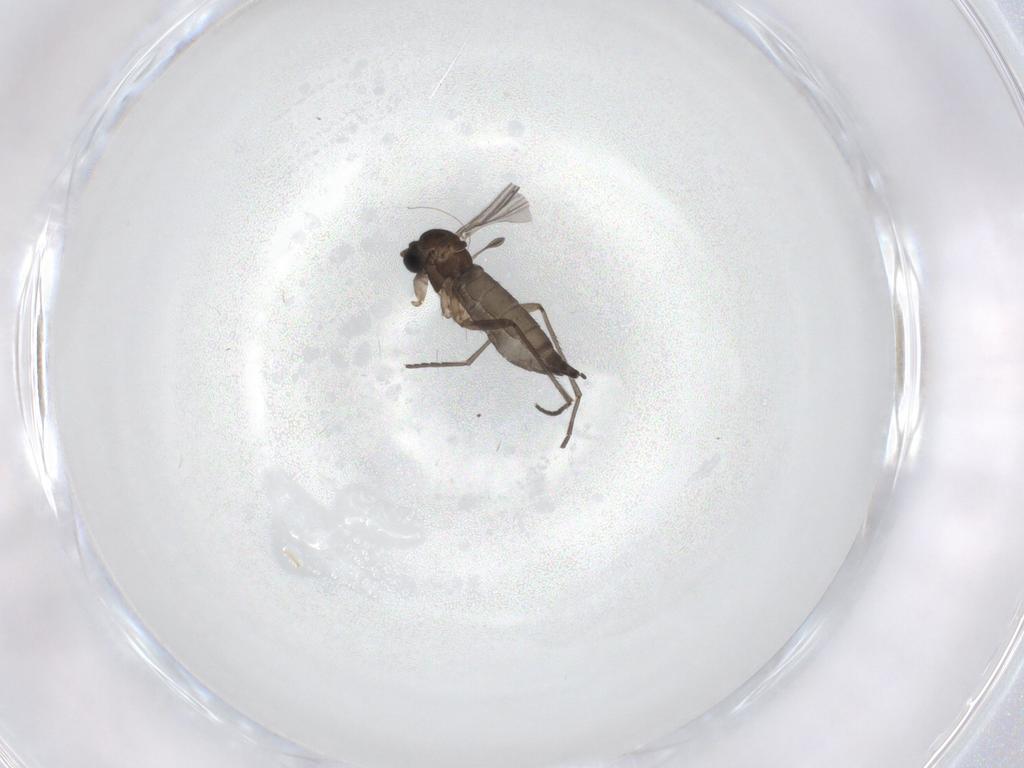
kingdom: Animalia
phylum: Arthropoda
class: Insecta
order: Diptera
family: Sciaridae
